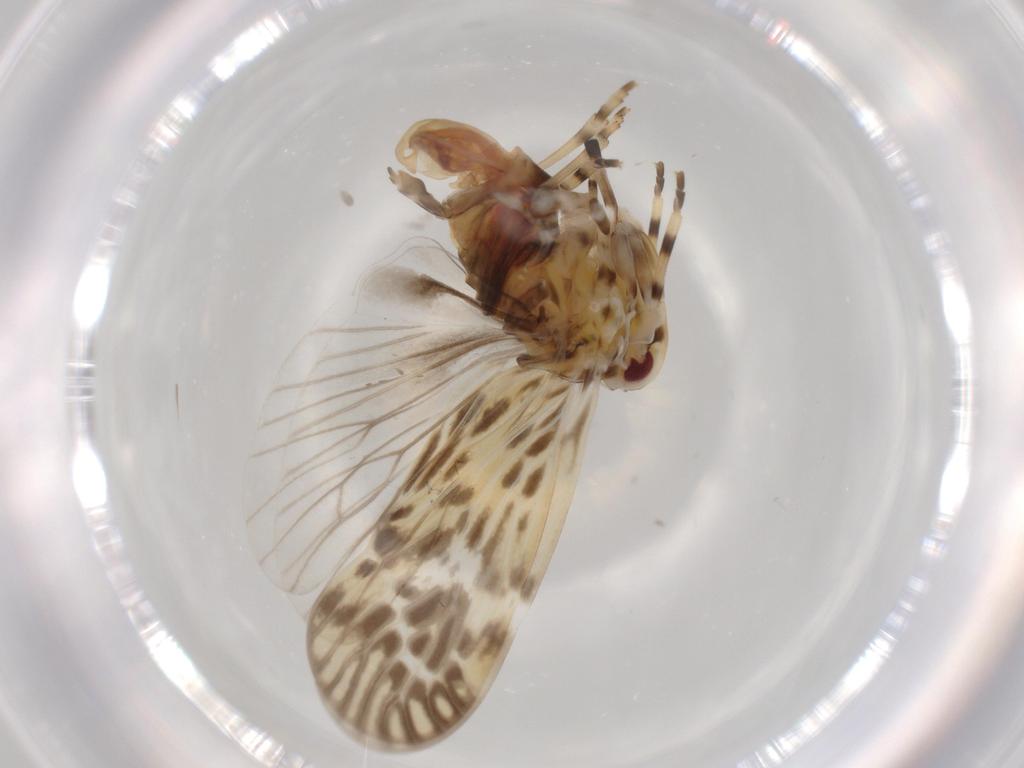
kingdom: Animalia
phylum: Arthropoda
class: Insecta
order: Hemiptera
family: Derbidae
